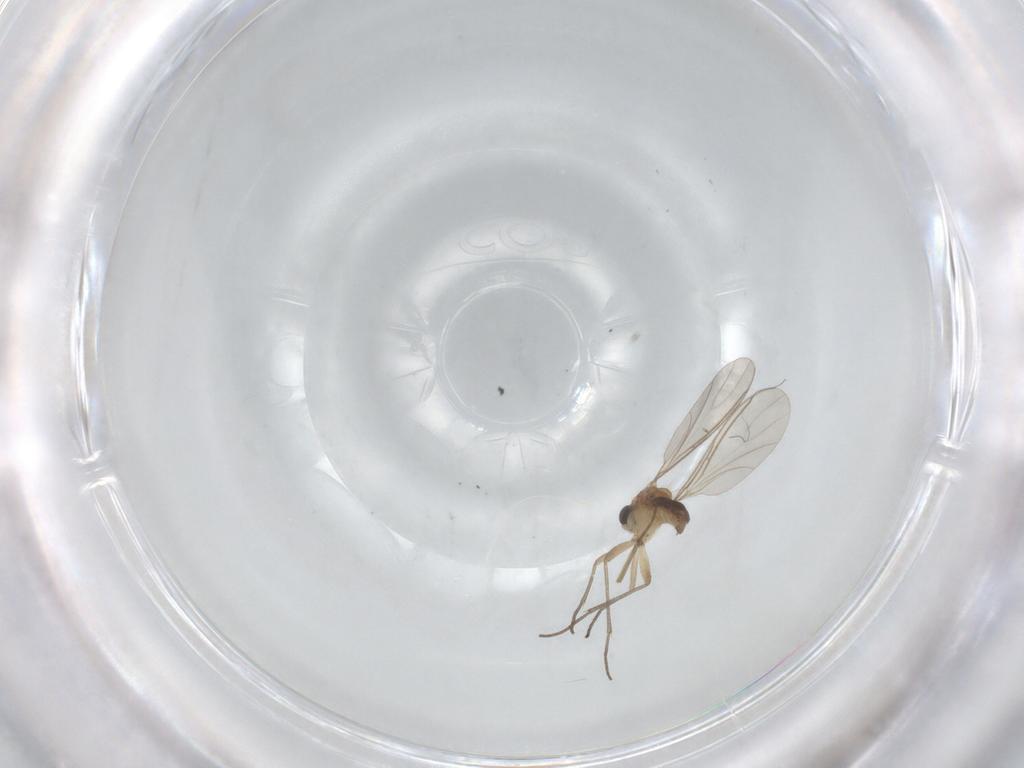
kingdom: Animalia
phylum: Arthropoda
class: Insecta
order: Diptera
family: Sciaridae
